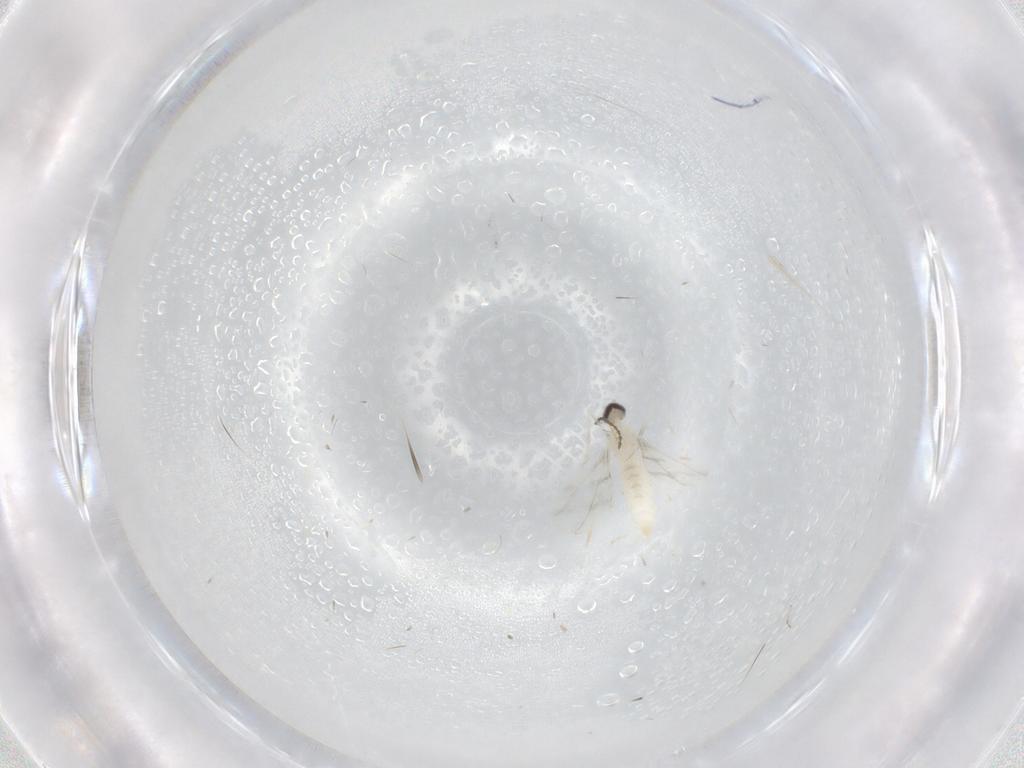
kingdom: Animalia
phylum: Arthropoda
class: Insecta
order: Diptera
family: Cecidomyiidae
